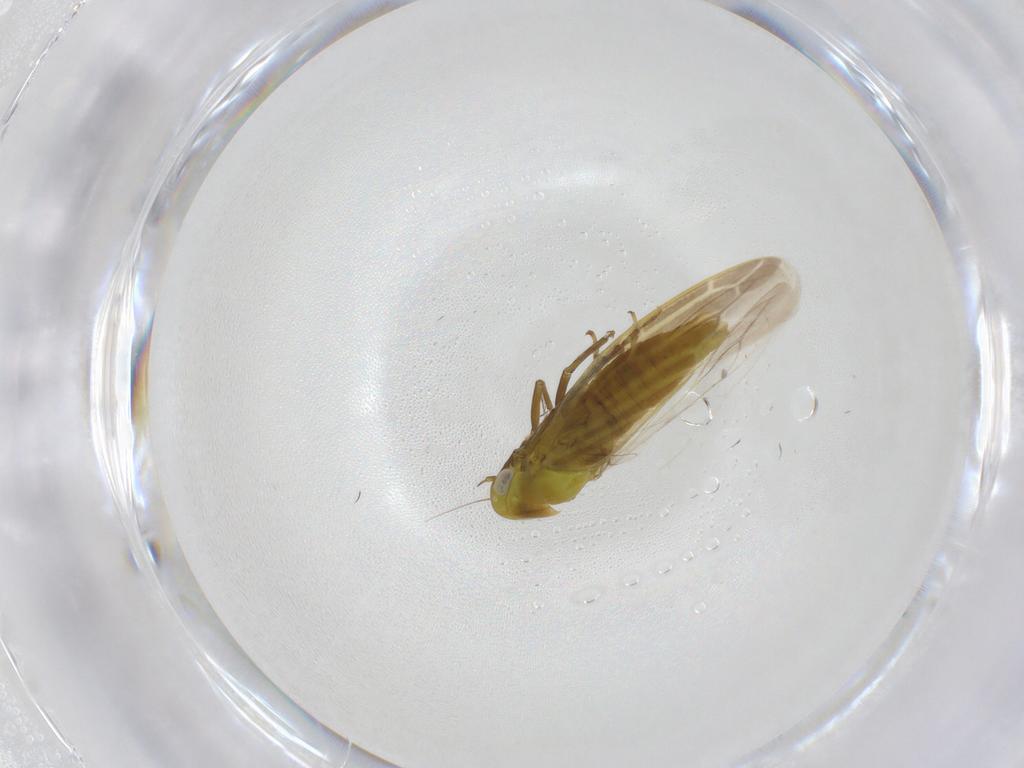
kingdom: Animalia
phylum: Arthropoda
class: Insecta
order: Hemiptera
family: Cicadellidae
